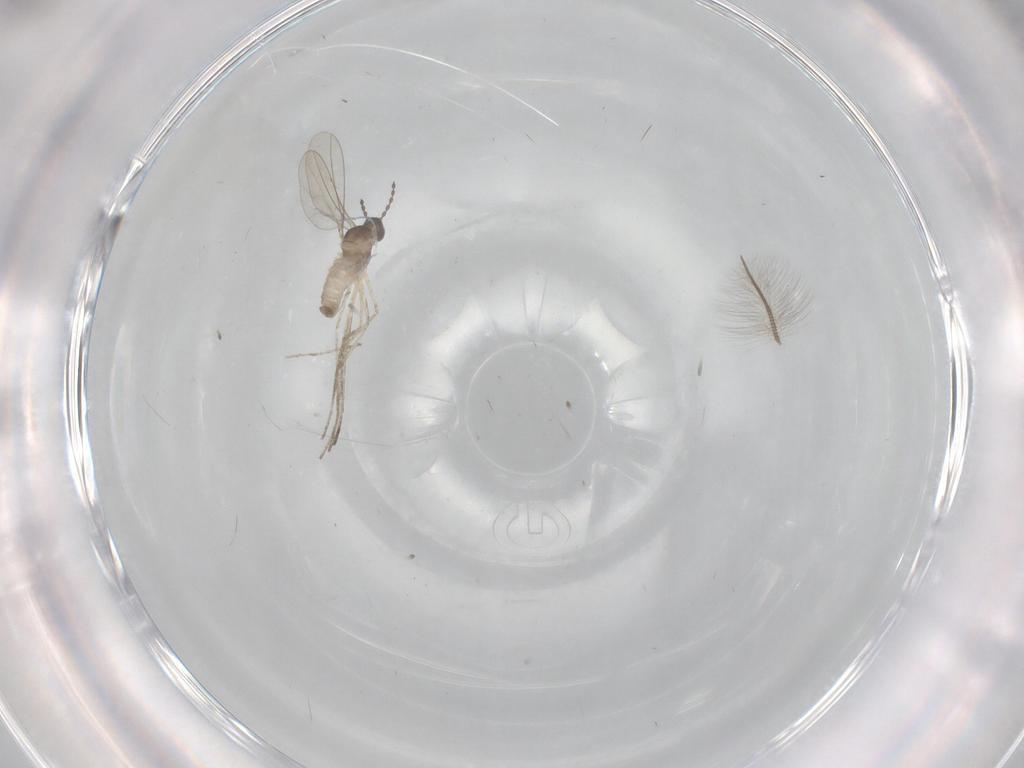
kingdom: Animalia
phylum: Arthropoda
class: Insecta
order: Diptera
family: Cecidomyiidae
